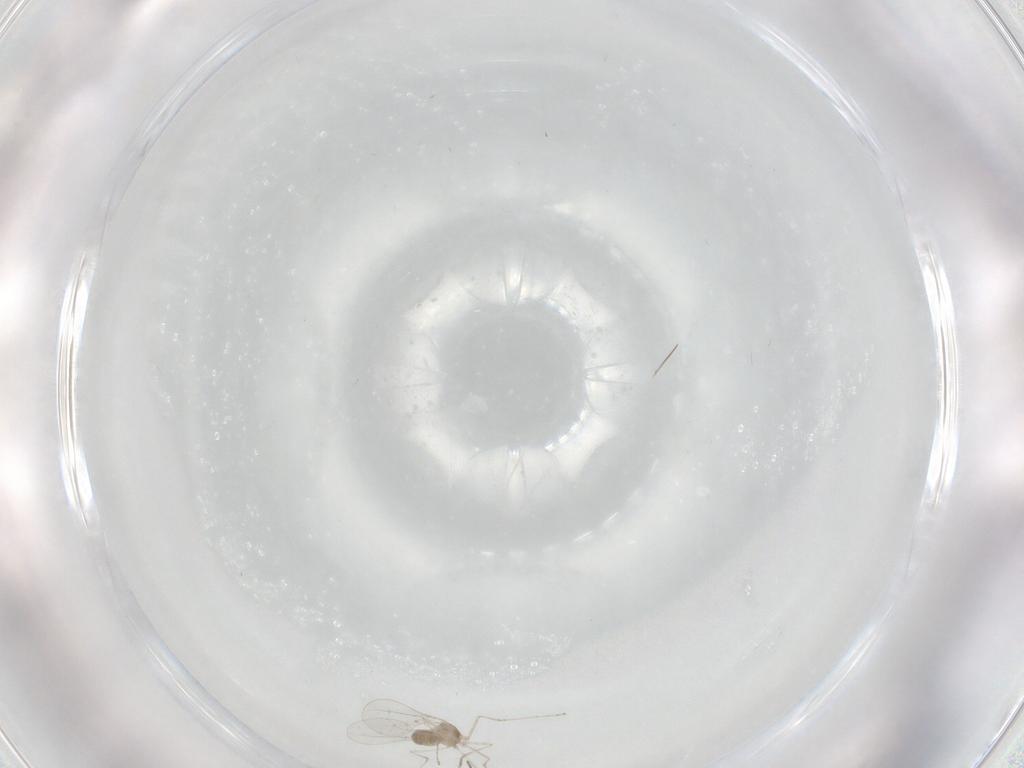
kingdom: Animalia
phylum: Arthropoda
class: Insecta
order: Diptera
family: Cecidomyiidae
